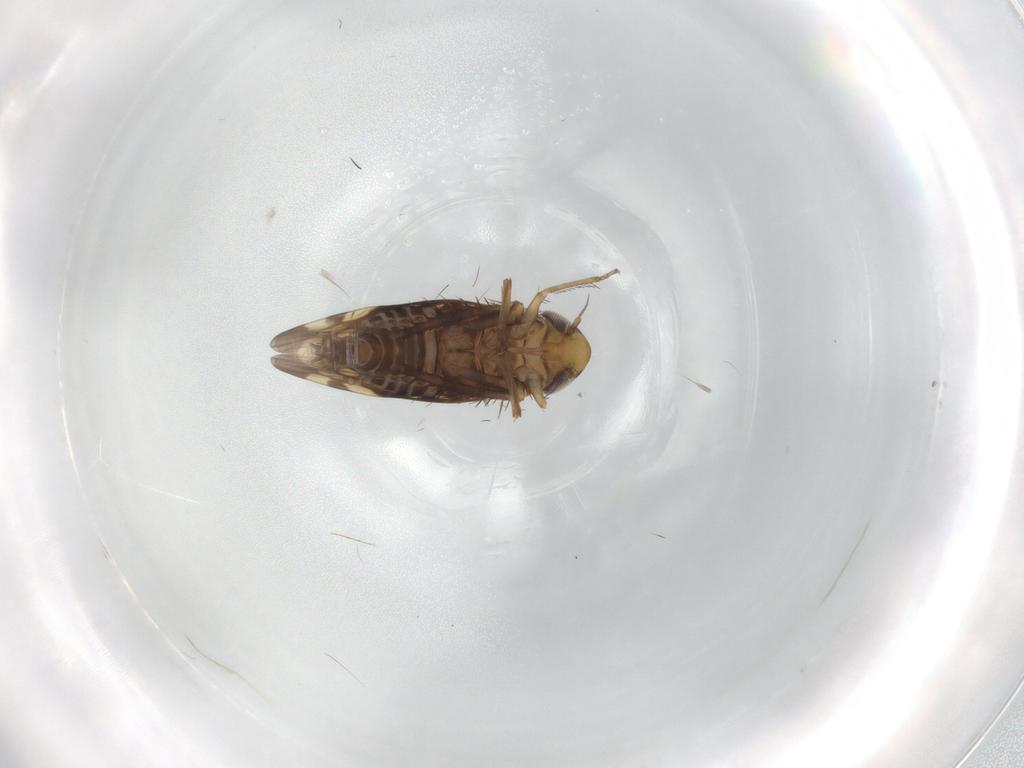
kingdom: Animalia
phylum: Arthropoda
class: Insecta
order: Hemiptera
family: Cicadellidae
